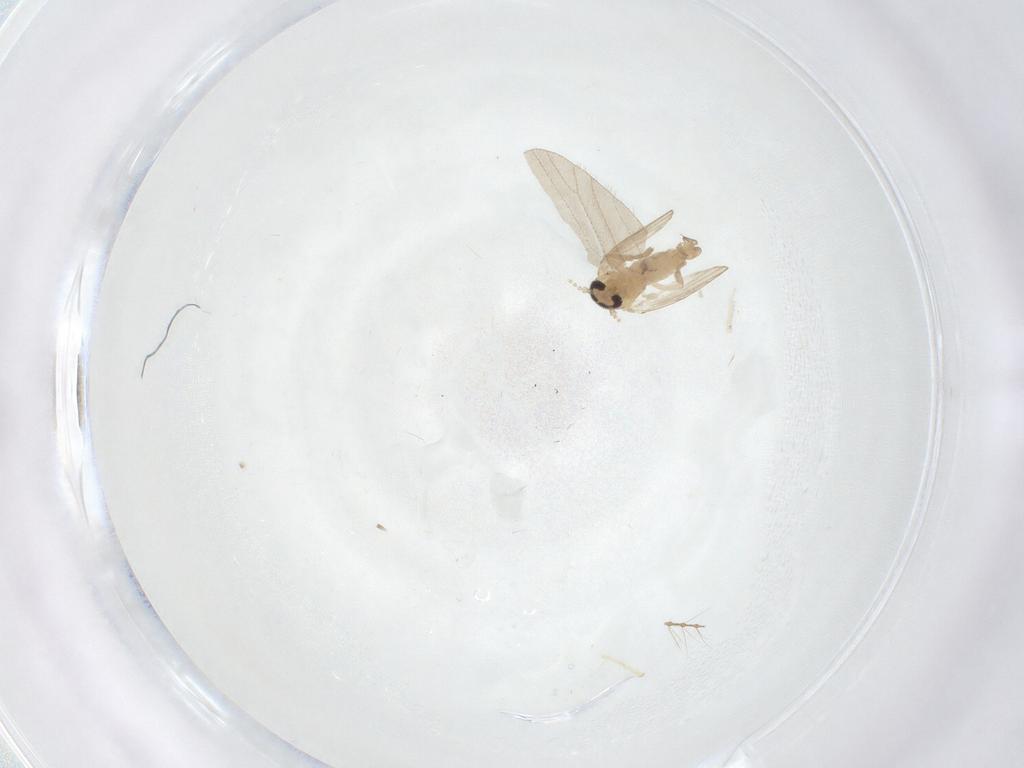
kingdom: Animalia
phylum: Arthropoda
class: Insecta
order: Diptera
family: Psychodidae
